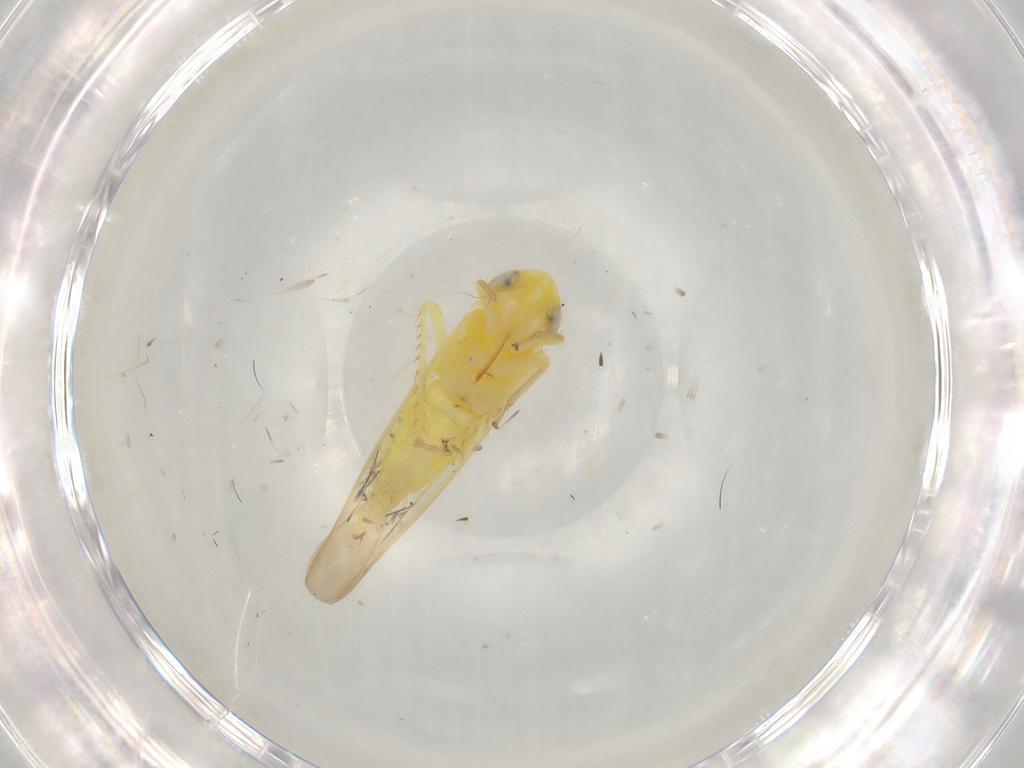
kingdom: Animalia
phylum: Arthropoda
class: Insecta
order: Hemiptera
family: Cicadellidae
